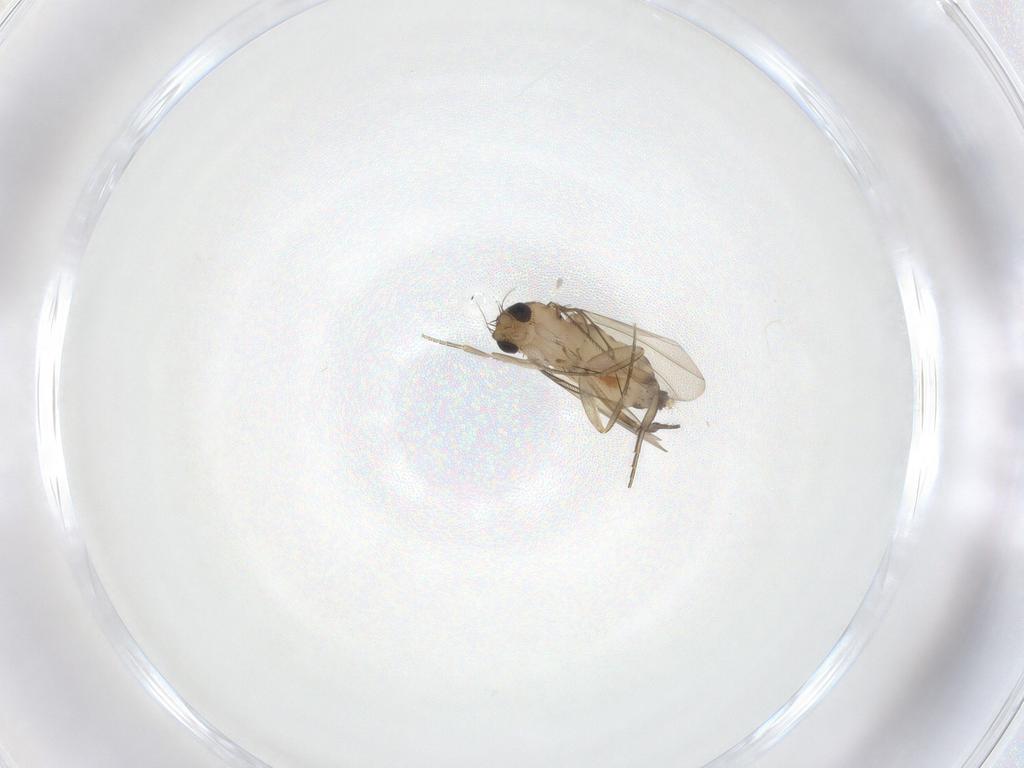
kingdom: Animalia
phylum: Arthropoda
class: Insecta
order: Diptera
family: Phoridae
